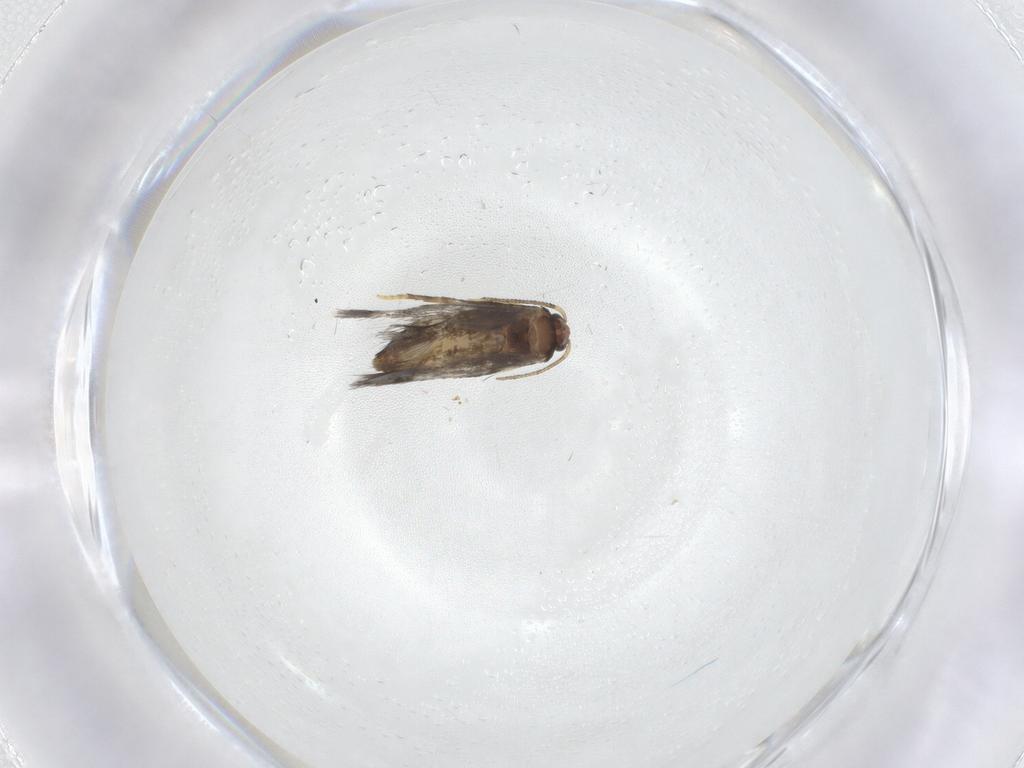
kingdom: Animalia
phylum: Arthropoda
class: Insecta
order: Lepidoptera
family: Nepticulidae
